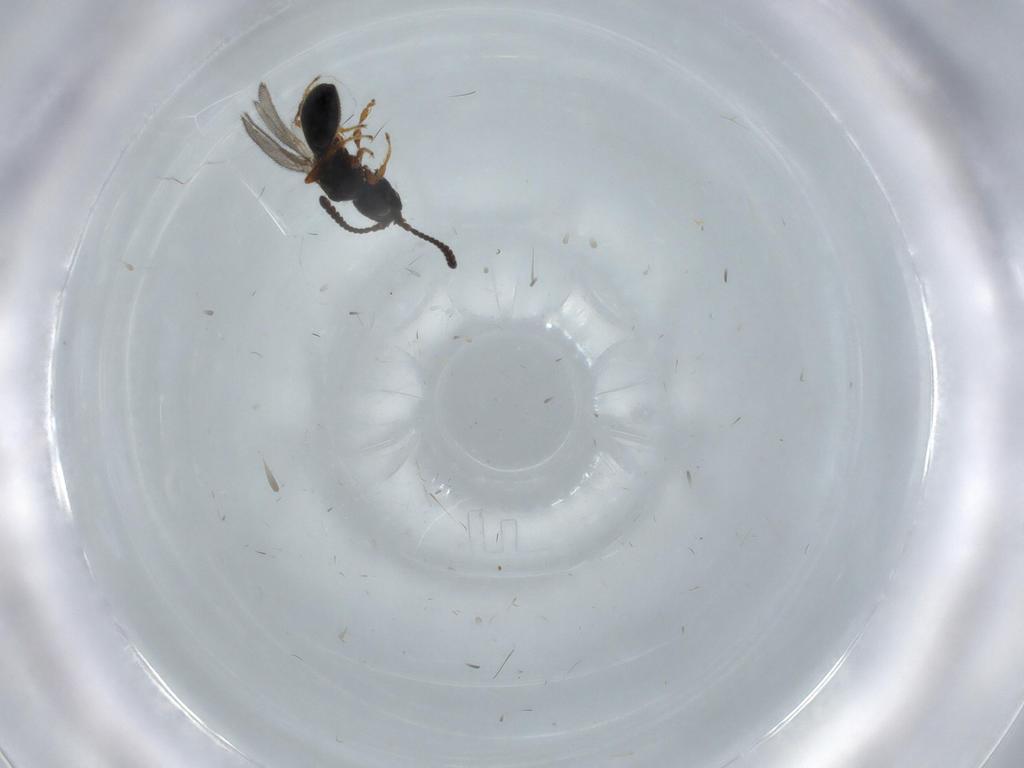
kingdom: Animalia
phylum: Arthropoda
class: Insecta
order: Hymenoptera
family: Diapriidae
